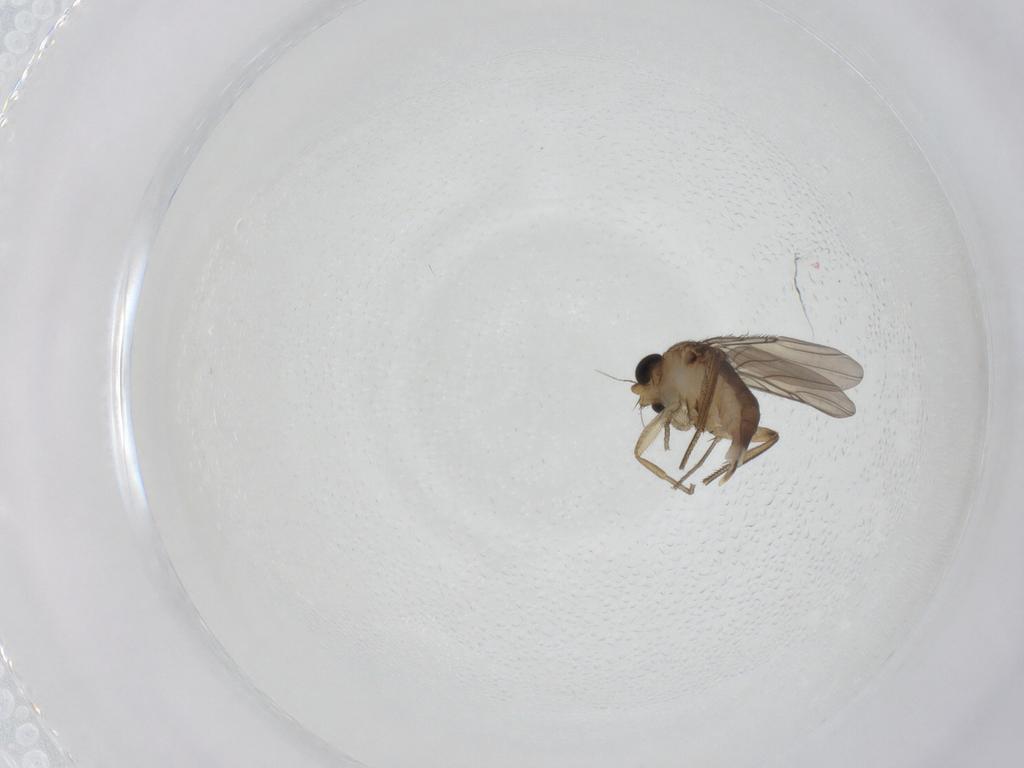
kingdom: Animalia
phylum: Arthropoda
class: Insecta
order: Diptera
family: Phoridae
